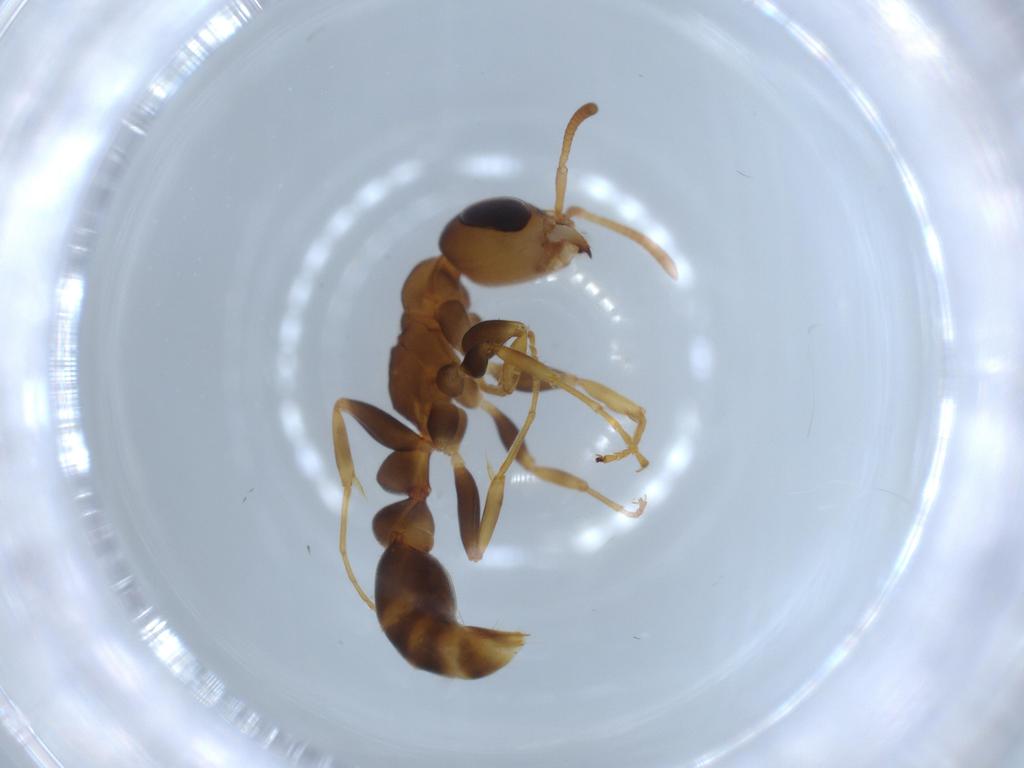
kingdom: Animalia
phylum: Arthropoda
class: Insecta
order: Hymenoptera
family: Formicidae
